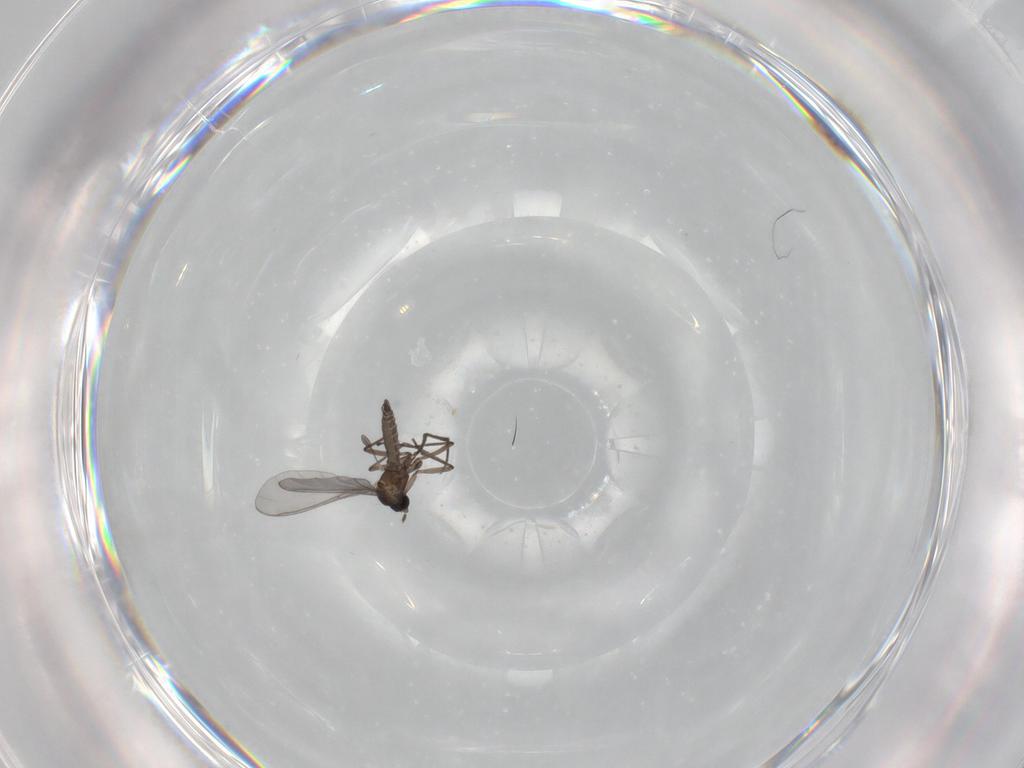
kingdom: Animalia
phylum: Arthropoda
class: Insecta
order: Diptera
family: Sciaridae
